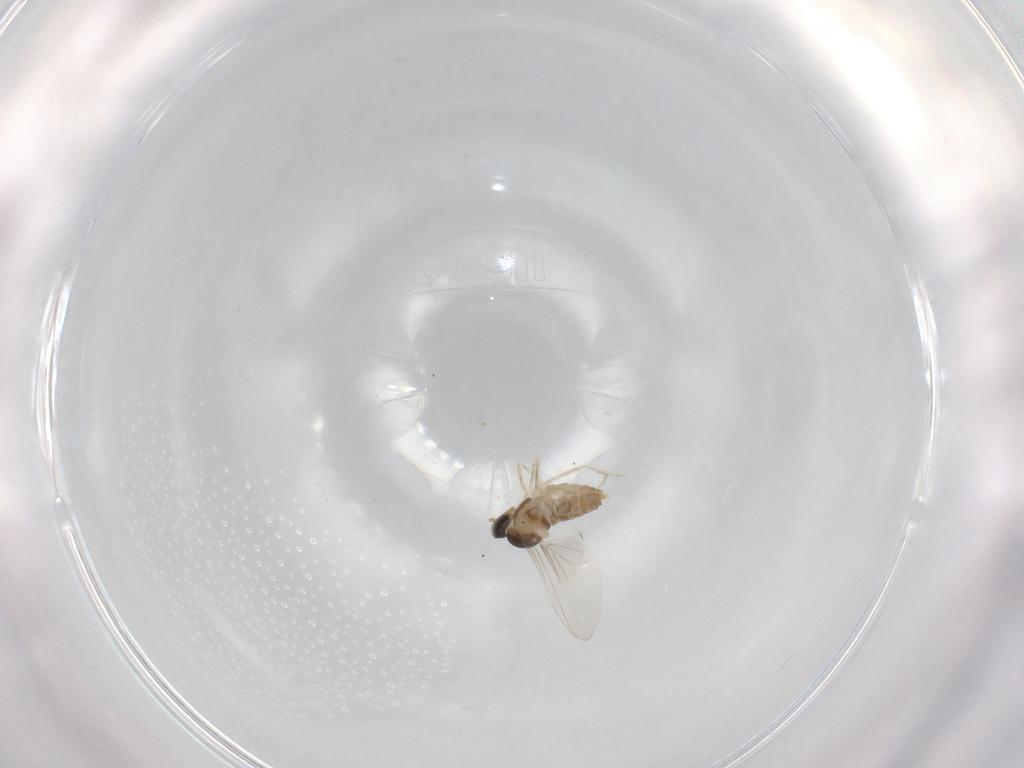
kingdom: Animalia
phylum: Arthropoda
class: Insecta
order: Diptera
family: Cecidomyiidae
